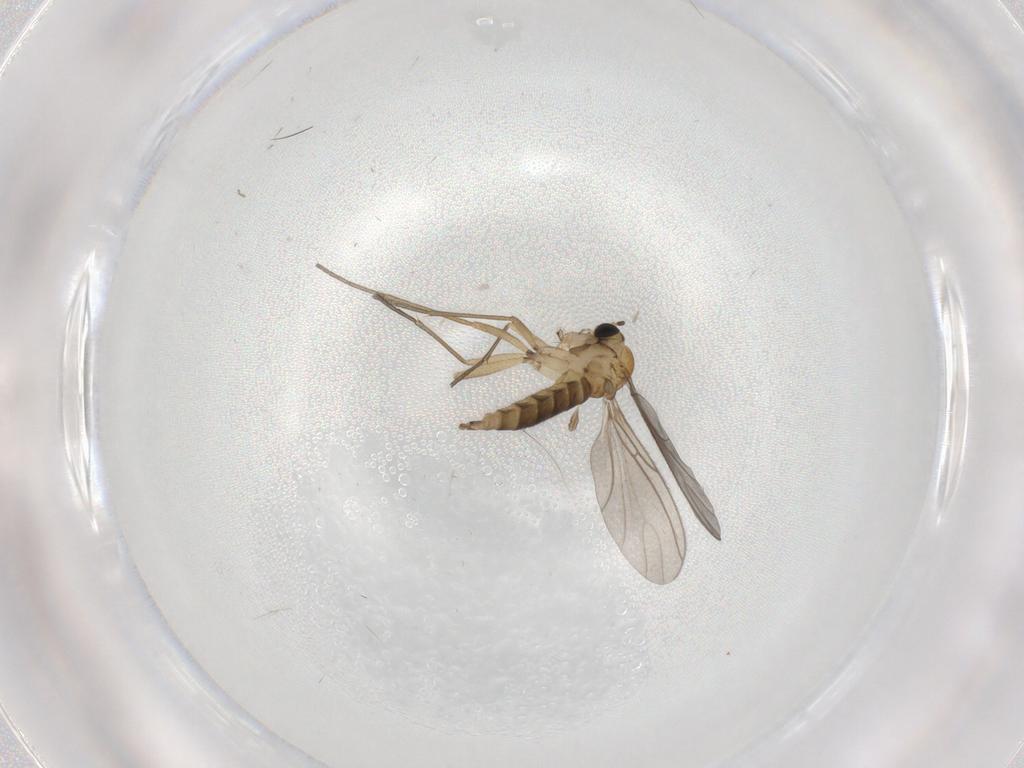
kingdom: Animalia
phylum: Arthropoda
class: Insecta
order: Diptera
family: Sciaridae
